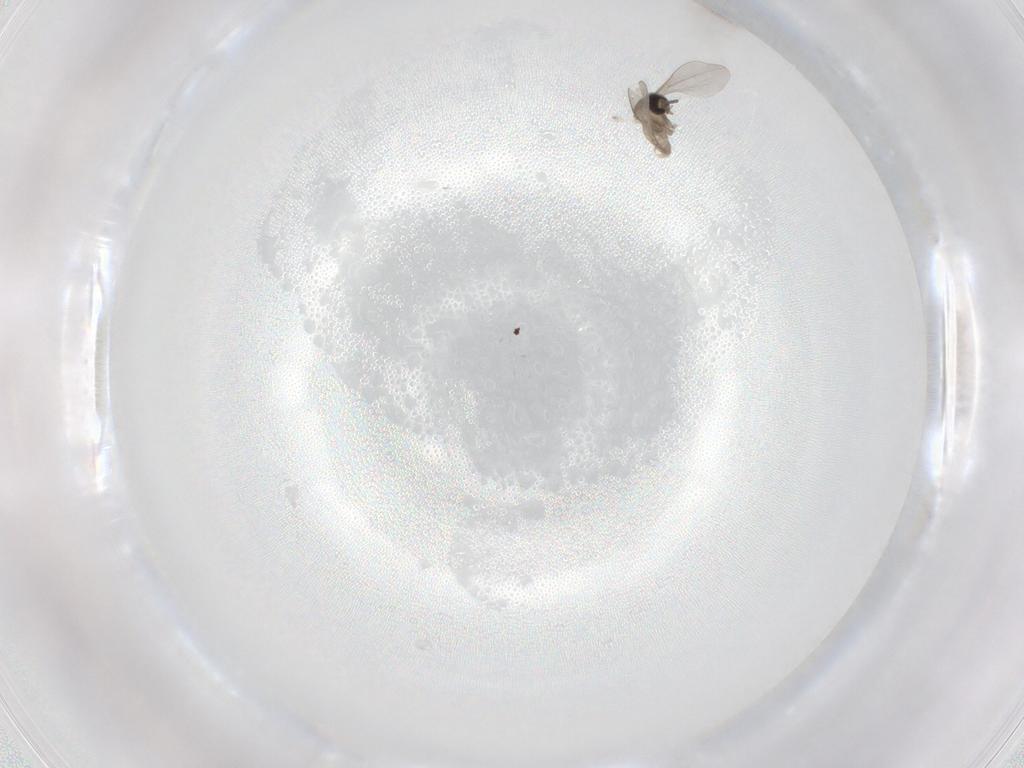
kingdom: Animalia
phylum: Arthropoda
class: Insecta
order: Diptera
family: Cecidomyiidae
